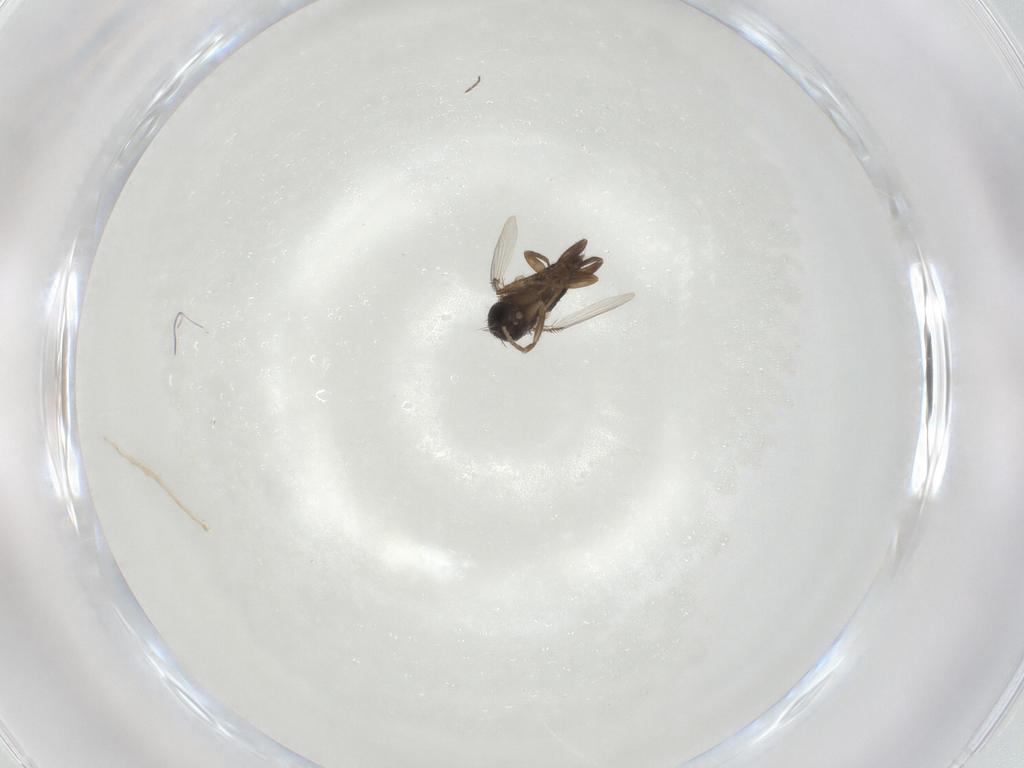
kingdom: Animalia
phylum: Arthropoda
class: Insecta
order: Diptera
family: Phoridae
